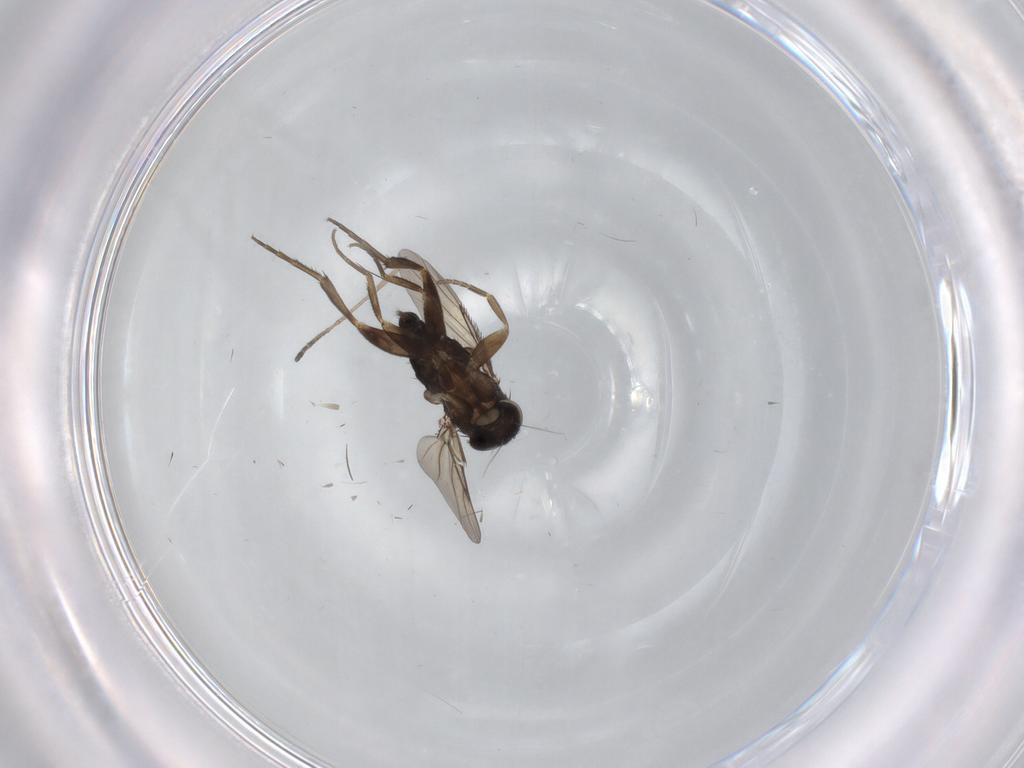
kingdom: Animalia
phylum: Arthropoda
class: Insecta
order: Diptera
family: Phoridae
